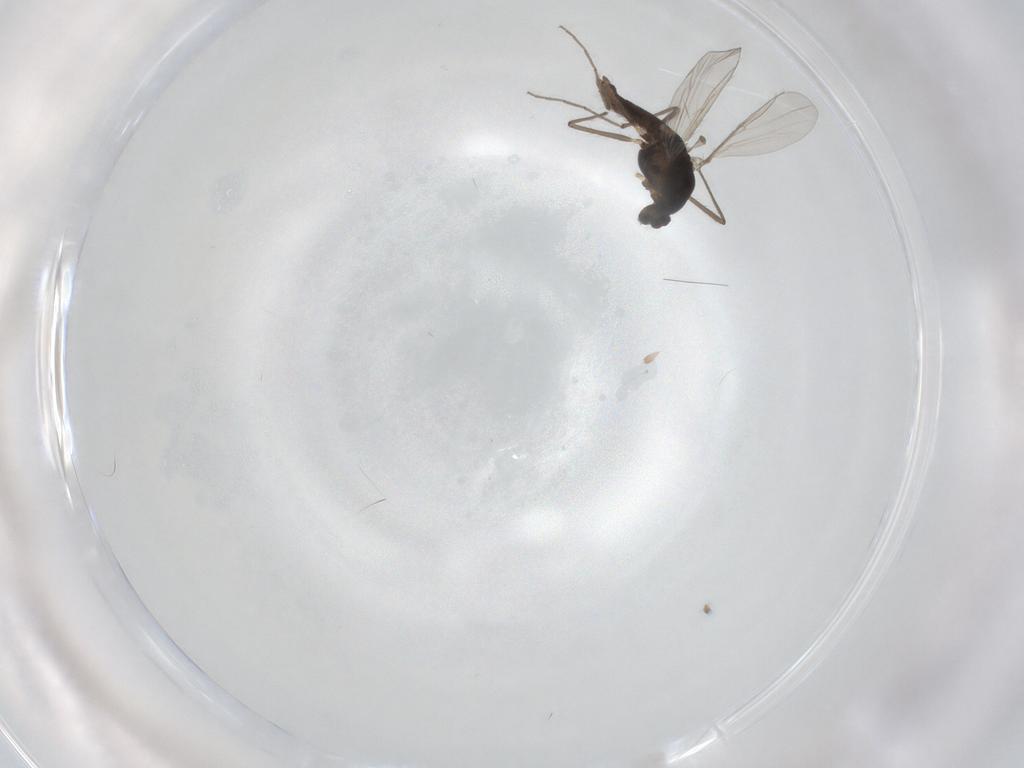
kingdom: Animalia
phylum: Arthropoda
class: Insecta
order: Diptera
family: Chironomidae
